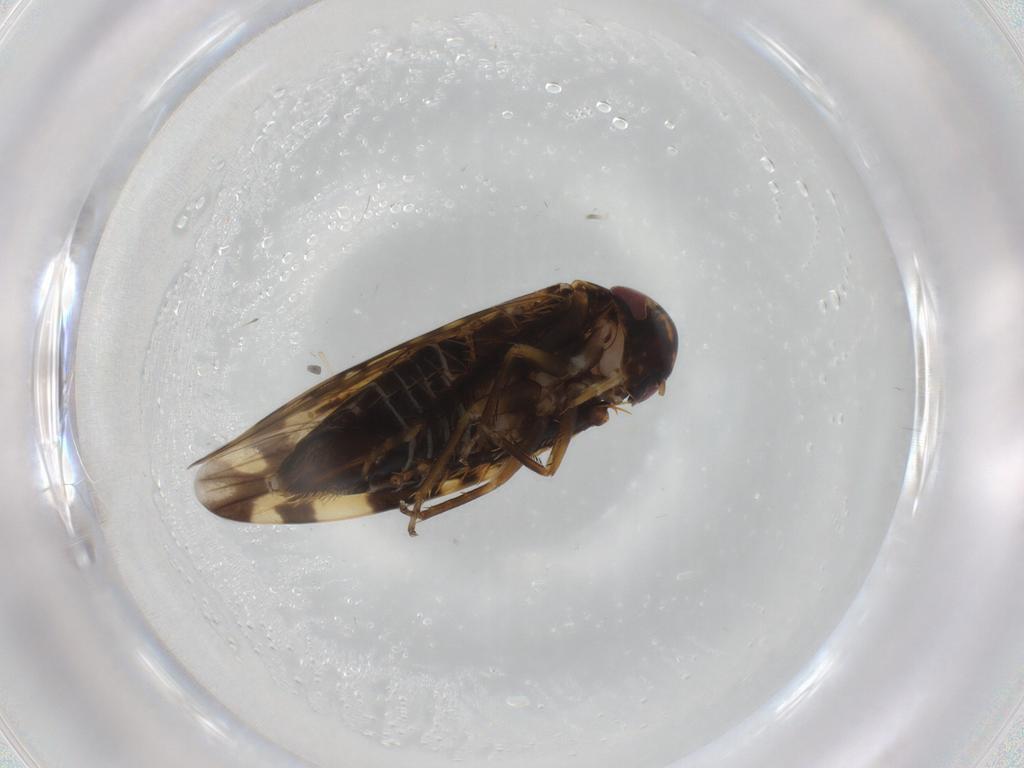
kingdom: Animalia
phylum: Arthropoda
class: Insecta
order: Hemiptera
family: Cicadellidae
